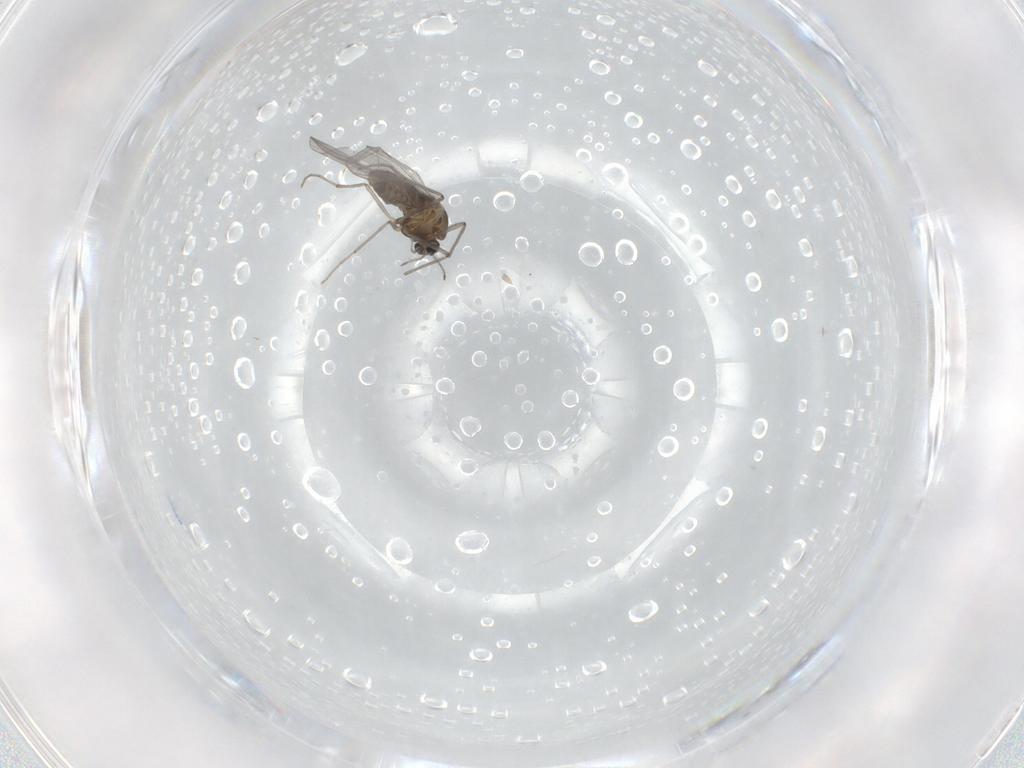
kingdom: Animalia
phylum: Arthropoda
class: Insecta
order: Diptera
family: Chironomidae
